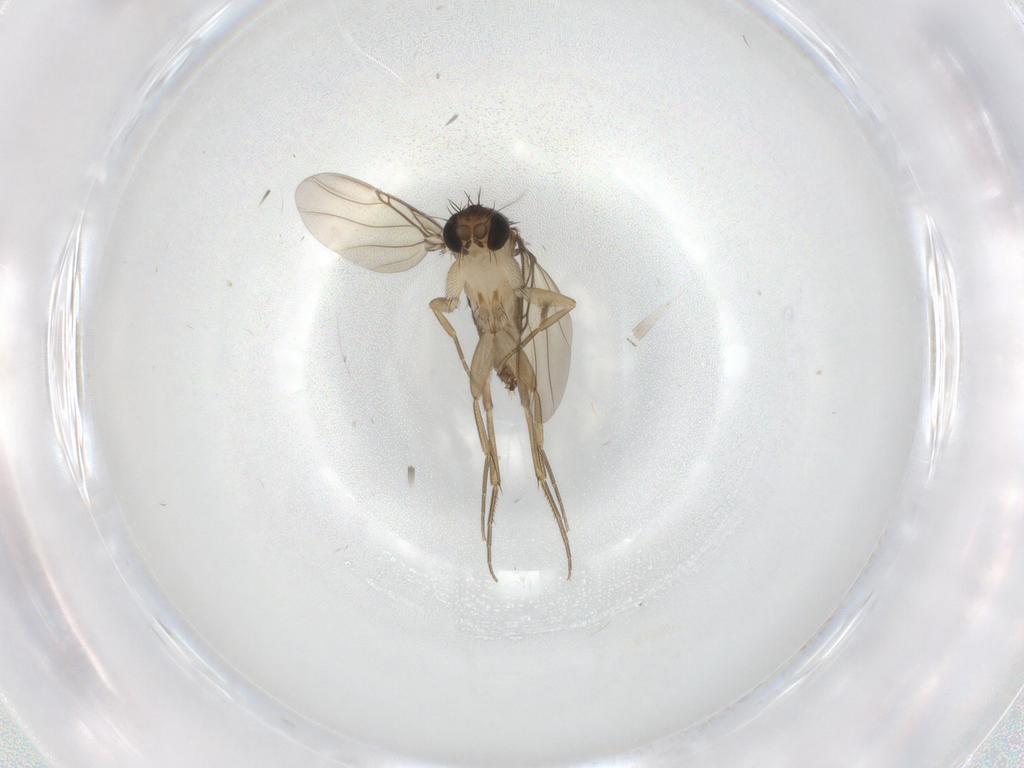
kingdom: Animalia
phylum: Arthropoda
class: Insecta
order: Diptera
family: Phoridae
